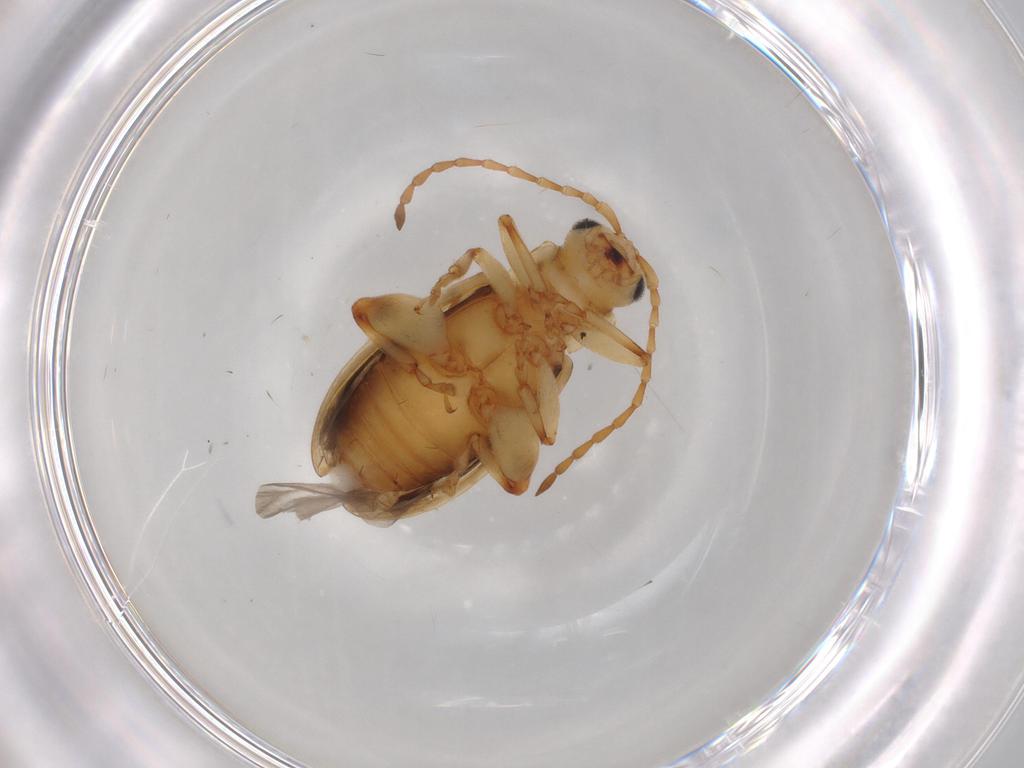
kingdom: Animalia
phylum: Arthropoda
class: Insecta
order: Coleoptera
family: Chrysomelidae
